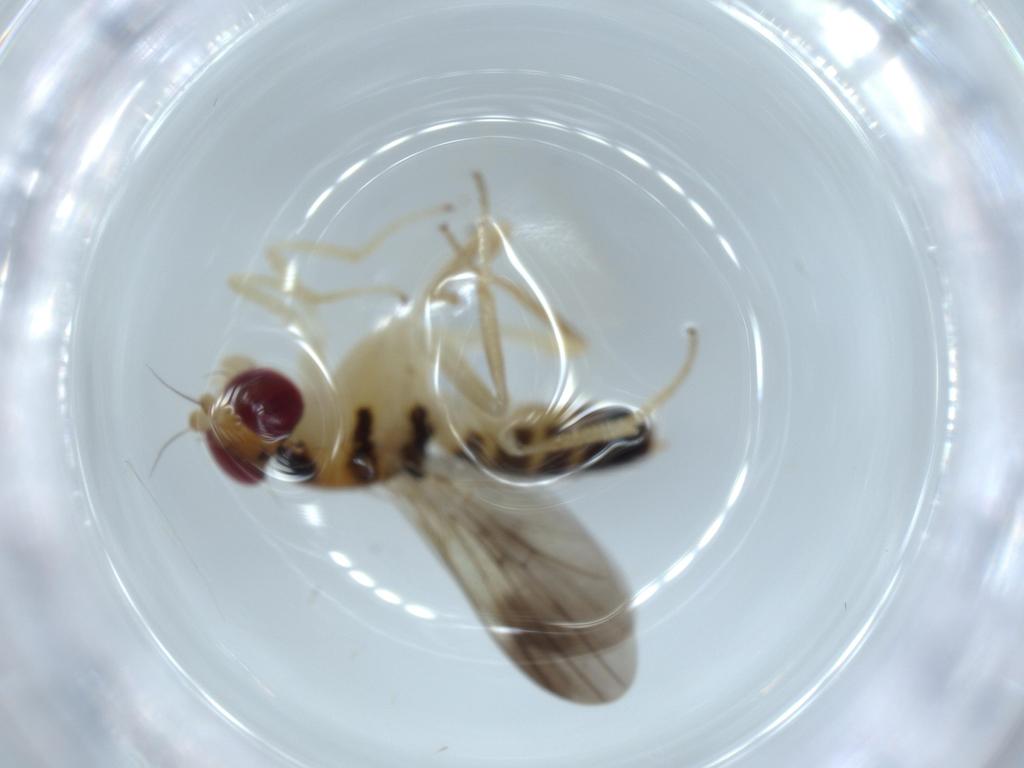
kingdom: Animalia
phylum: Arthropoda
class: Insecta
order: Diptera
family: Clusiidae
